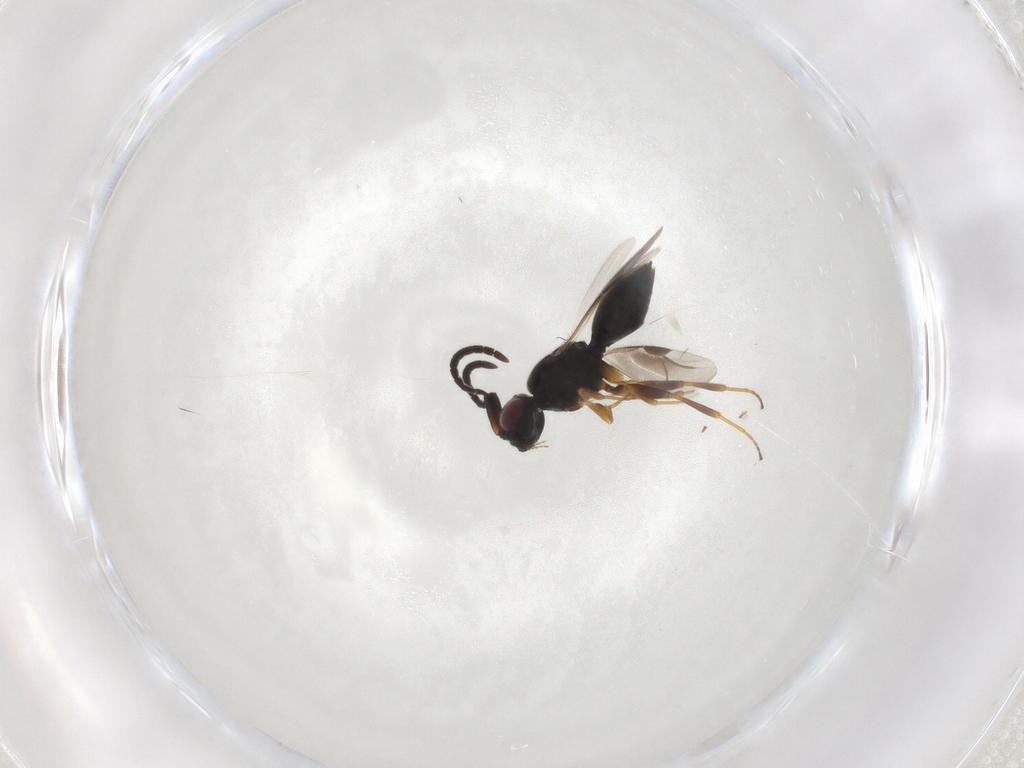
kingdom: Animalia
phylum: Arthropoda
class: Insecta
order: Hymenoptera
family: Megaspilidae
